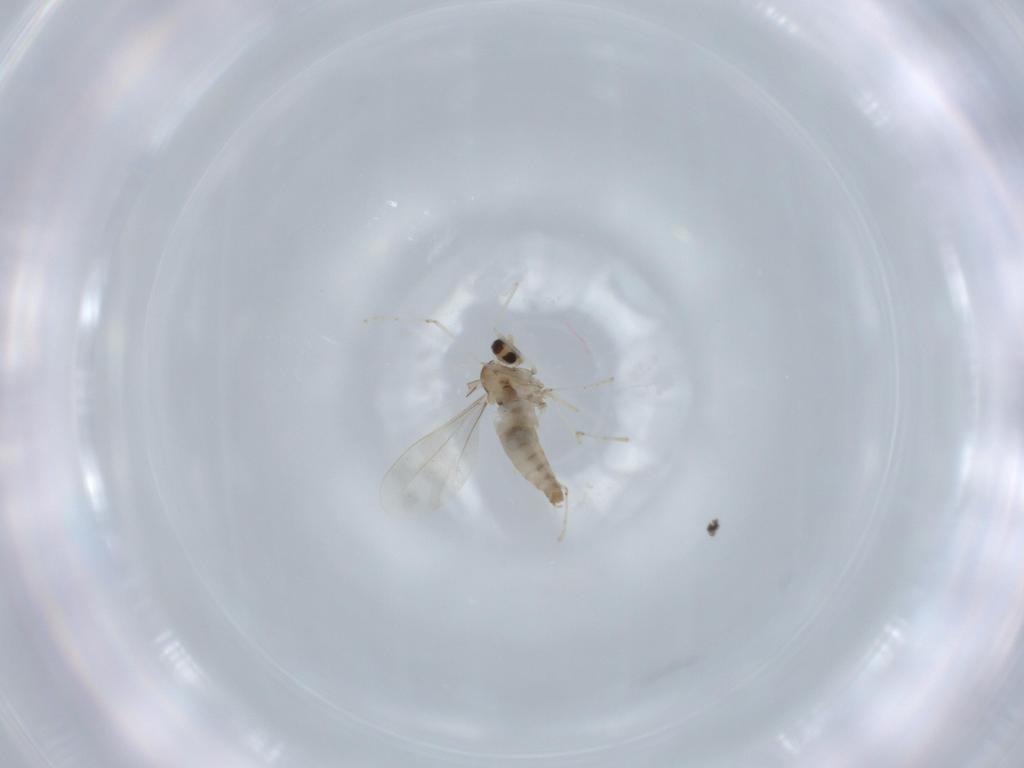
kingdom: Animalia
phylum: Arthropoda
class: Insecta
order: Diptera
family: Cecidomyiidae
